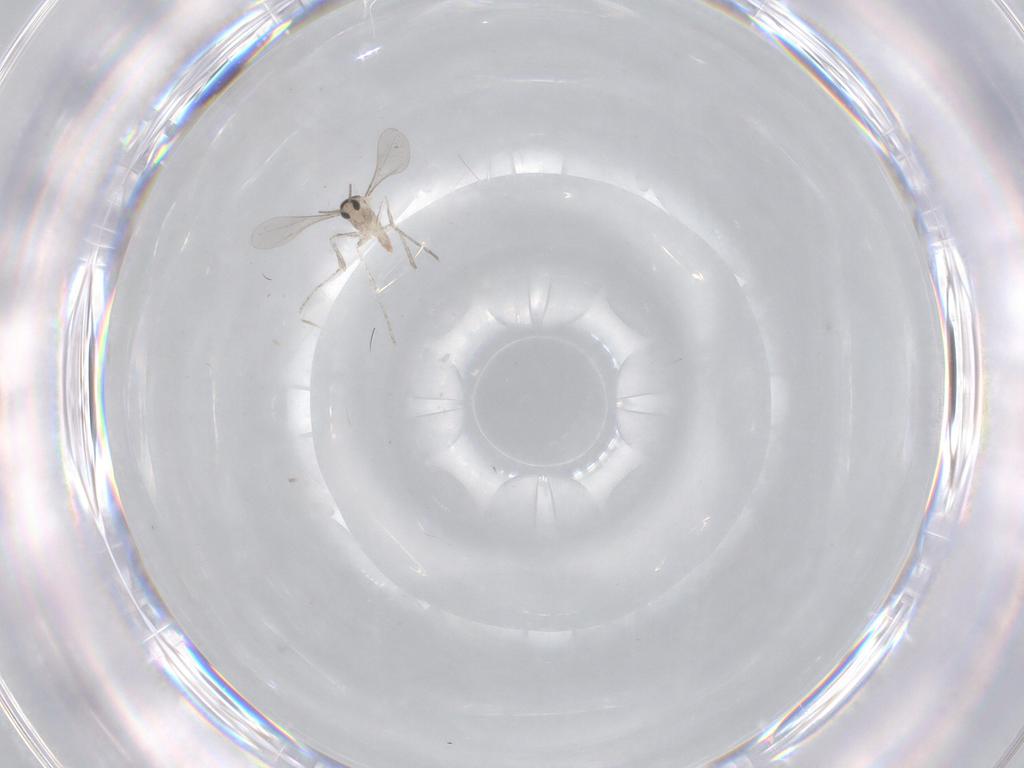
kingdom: Animalia
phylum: Arthropoda
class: Insecta
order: Diptera
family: Cecidomyiidae
